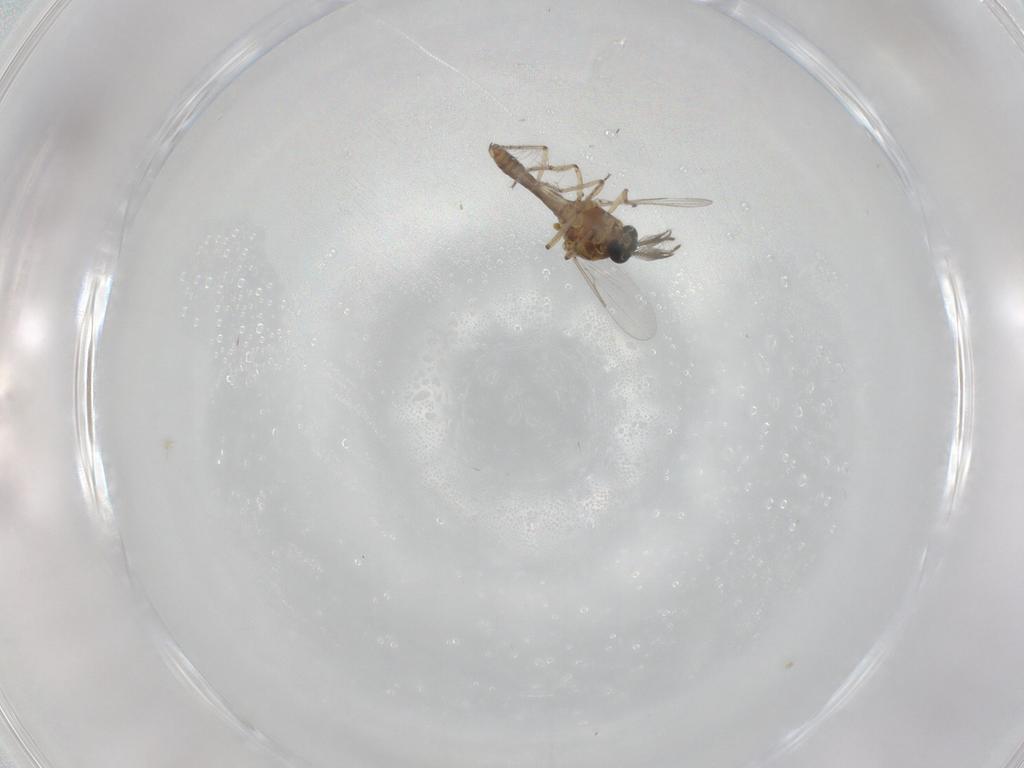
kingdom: Animalia
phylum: Arthropoda
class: Insecta
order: Diptera
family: Ceratopogonidae
